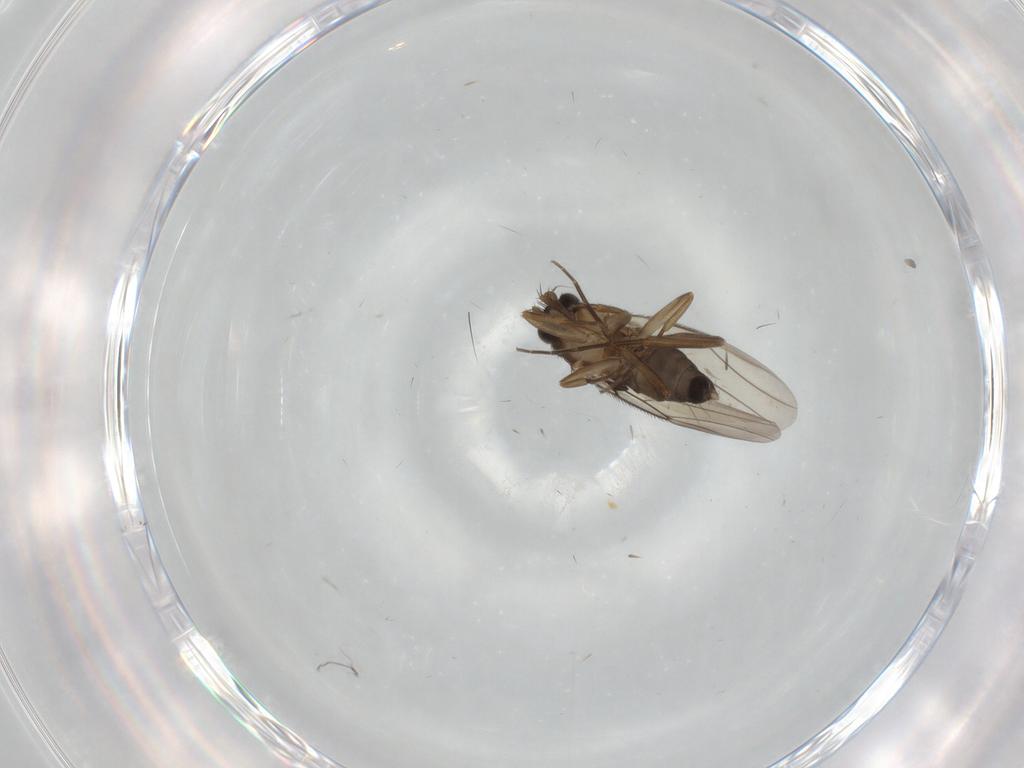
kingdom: Animalia
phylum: Arthropoda
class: Insecta
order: Diptera
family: Phoridae
